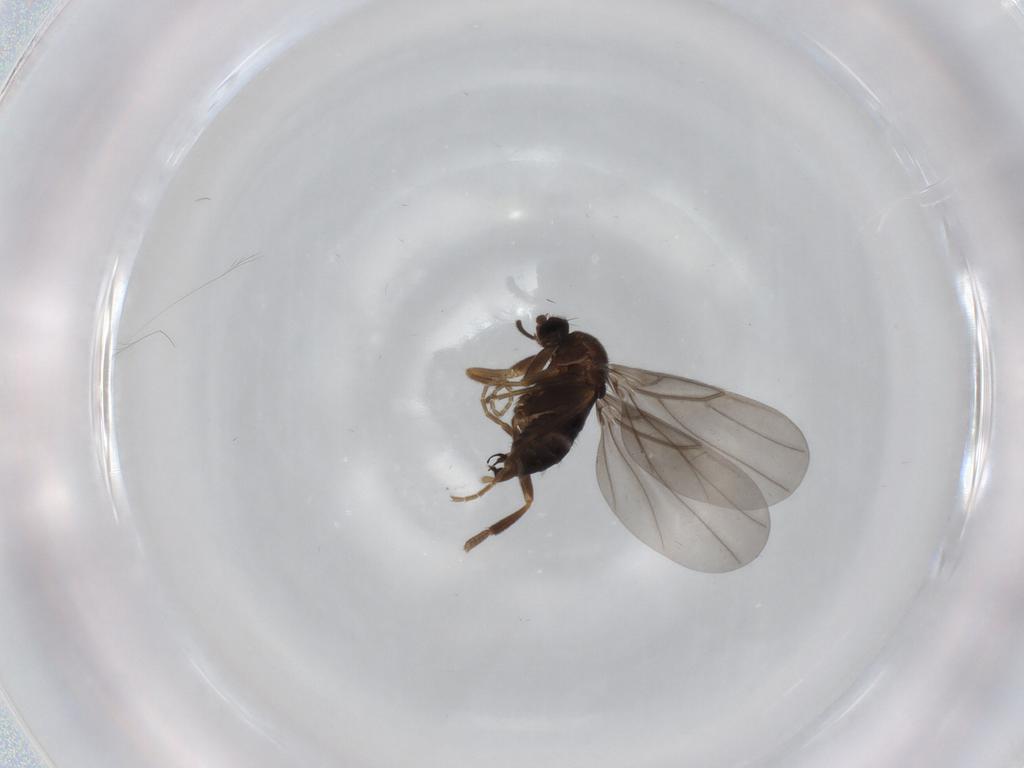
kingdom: Animalia
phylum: Arthropoda
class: Insecta
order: Diptera
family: Phoridae
